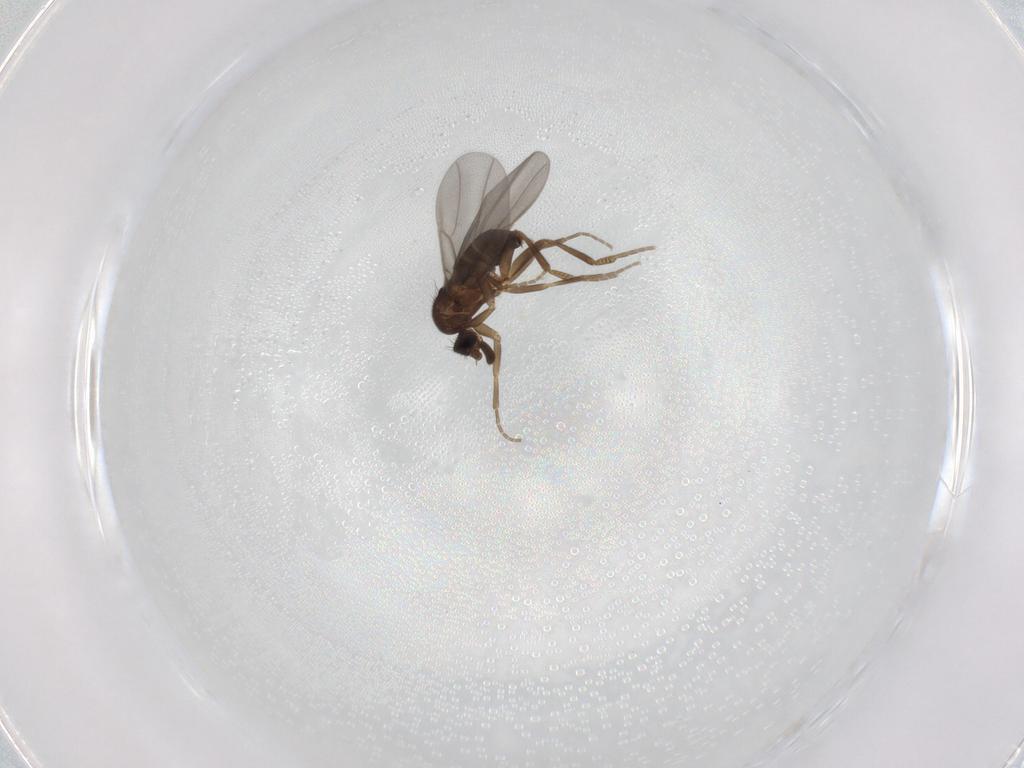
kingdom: Animalia
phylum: Arthropoda
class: Insecta
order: Diptera
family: Phoridae
